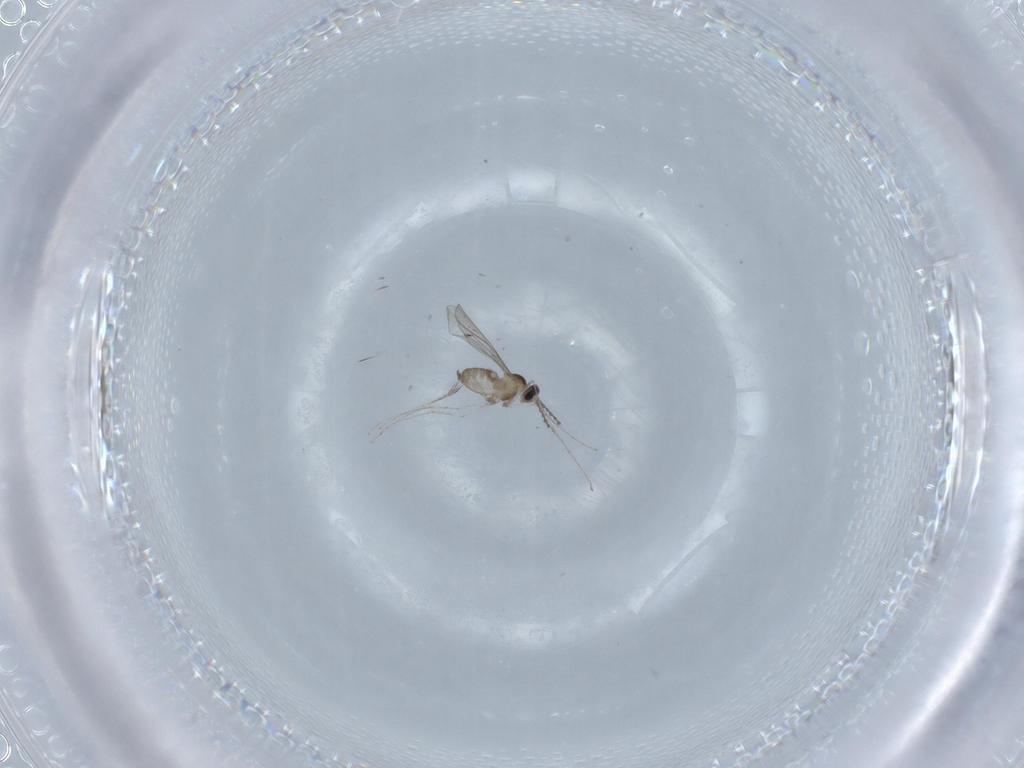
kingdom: Animalia
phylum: Arthropoda
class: Insecta
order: Diptera
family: Cecidomyiidae
